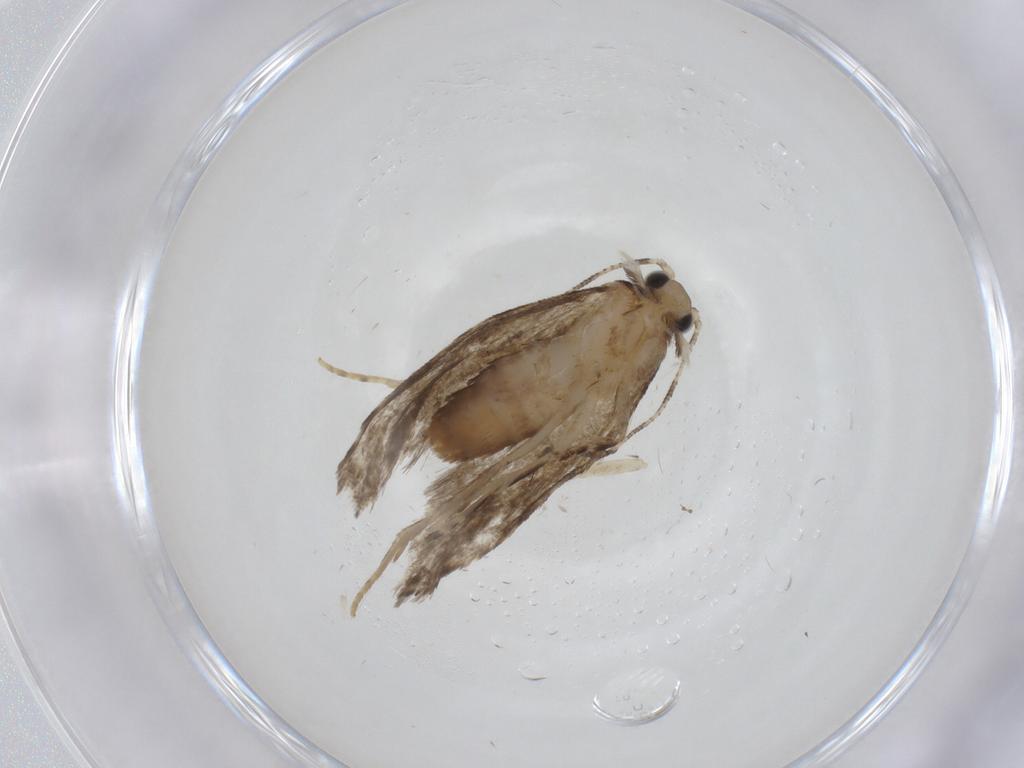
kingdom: Animalia
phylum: Arthropoda
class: Insecta
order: Lepidoptera
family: Tineidae
